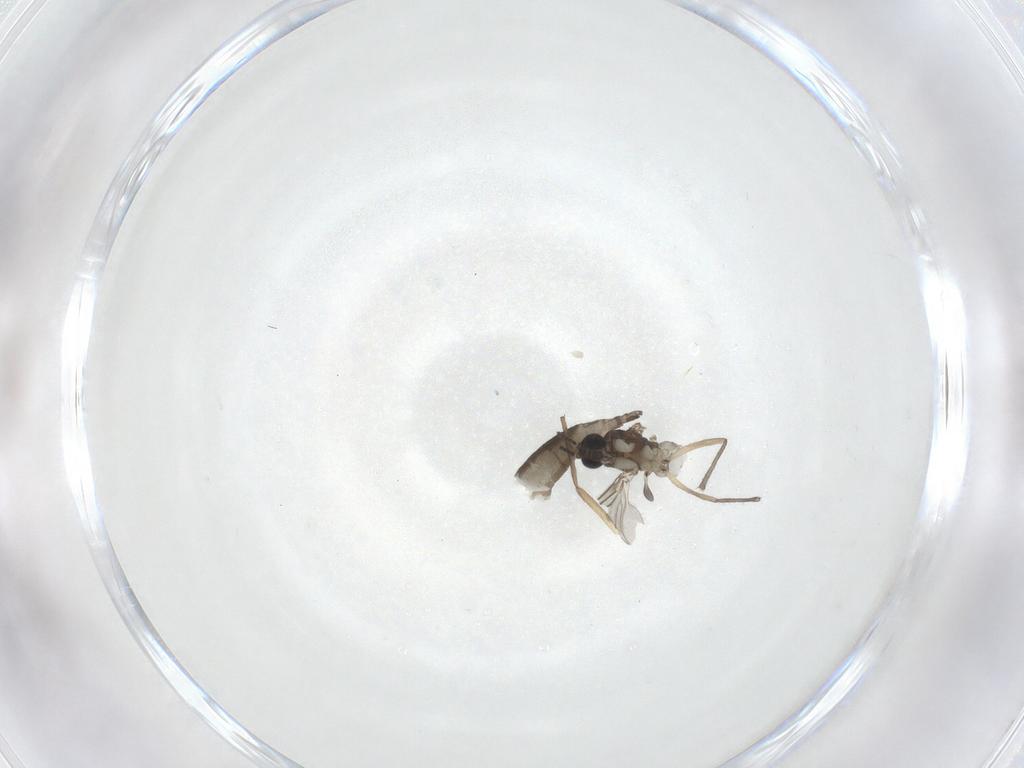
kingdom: Animalia
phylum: Arthropoda
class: Insecta
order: Diptera
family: Sciaridae
